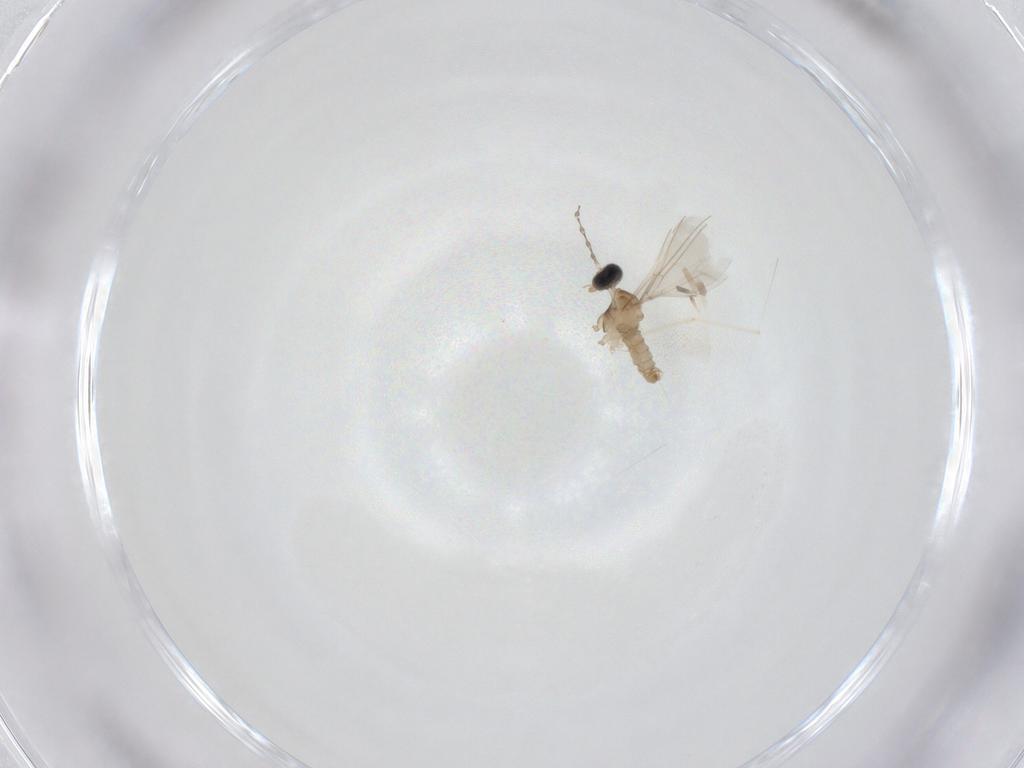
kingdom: Animalia
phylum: Arthropoda
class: Insecta
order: Diptera
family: Cecidomyiidae
